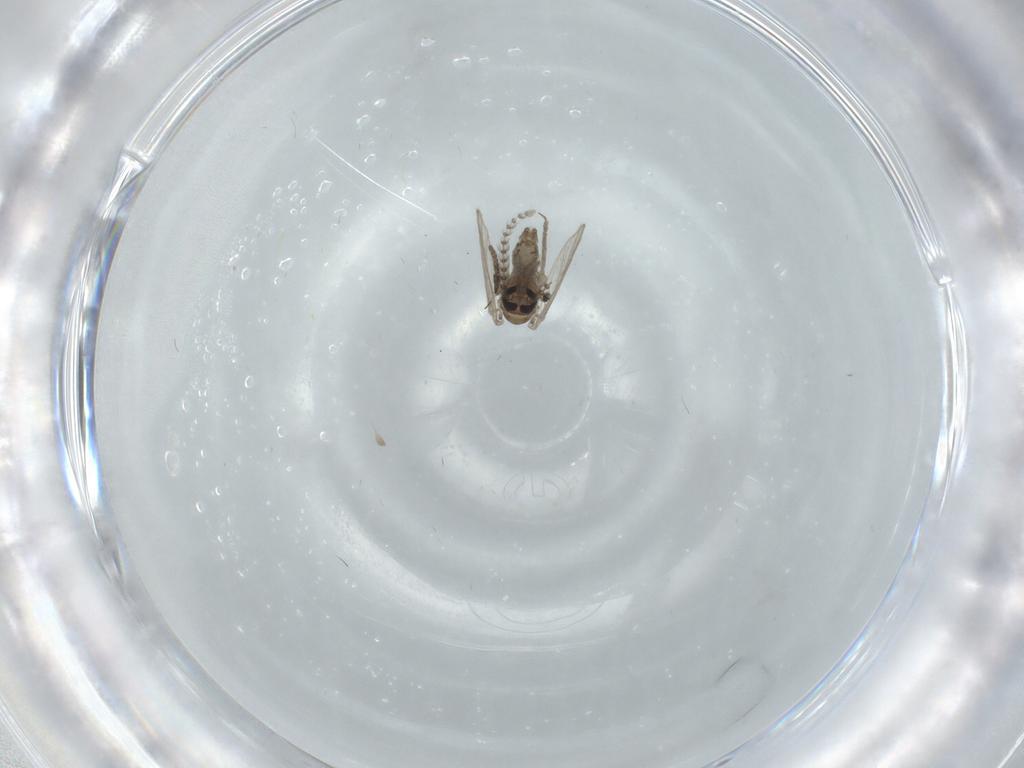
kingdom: Animalia
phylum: Arthropoda
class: Insecta
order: Diptera
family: Psychodidae
